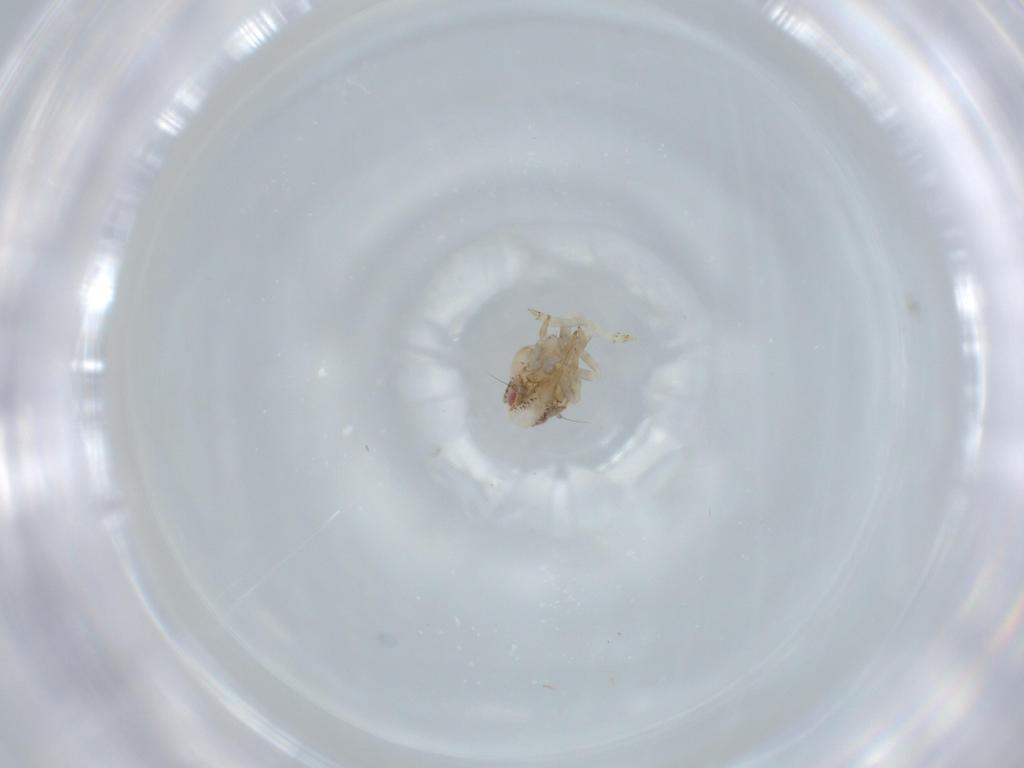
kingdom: Animalia
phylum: Arthropoda
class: Insecta
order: Hemiptera
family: Acanaloniidae
